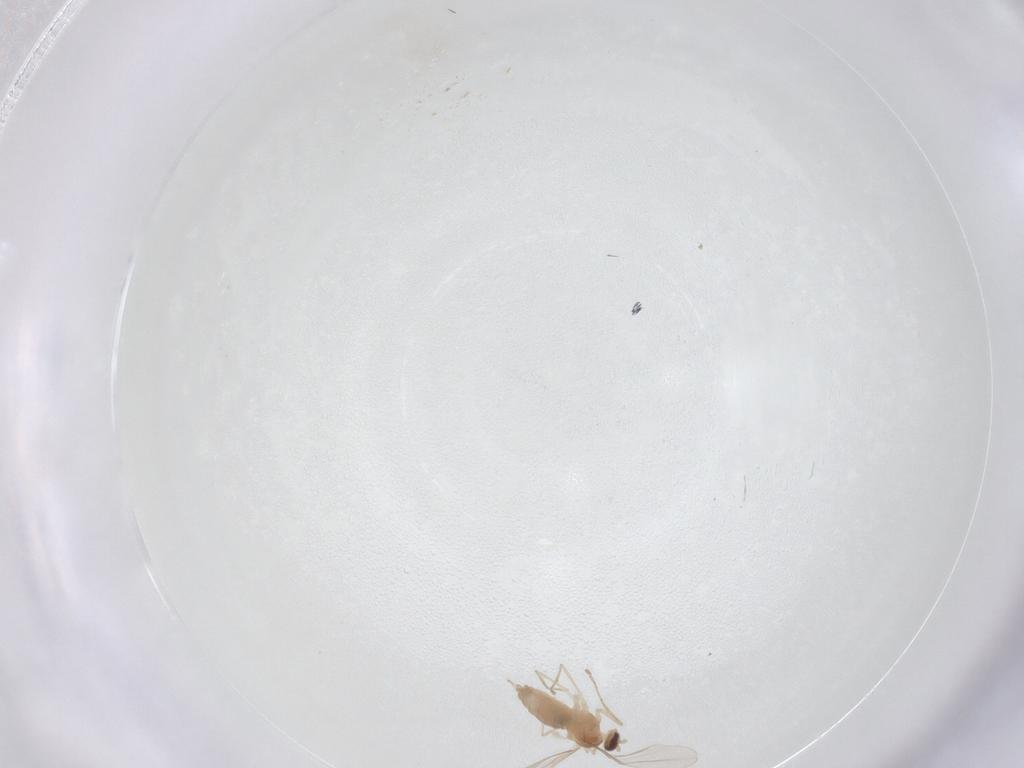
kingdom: Animalia
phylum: Arthropoda
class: Insecta
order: Diptera
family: Cecidomyiidae
